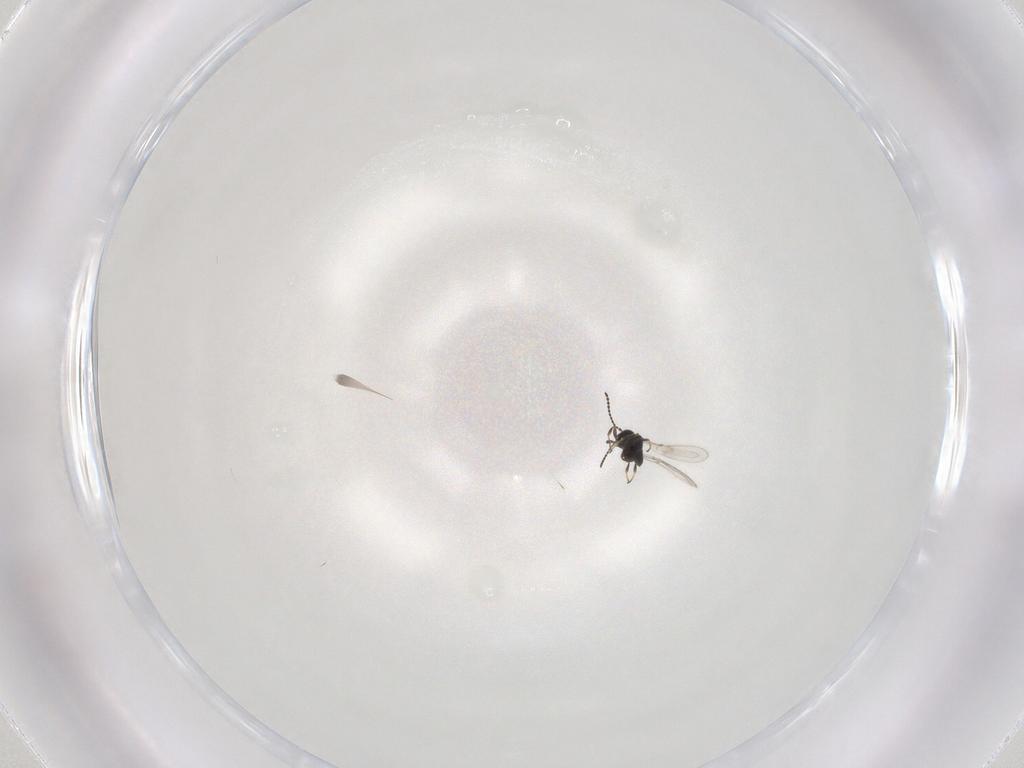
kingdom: Animalia
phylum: Arthropoda
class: Insecta
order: Hymenoptera
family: Scelionidae
